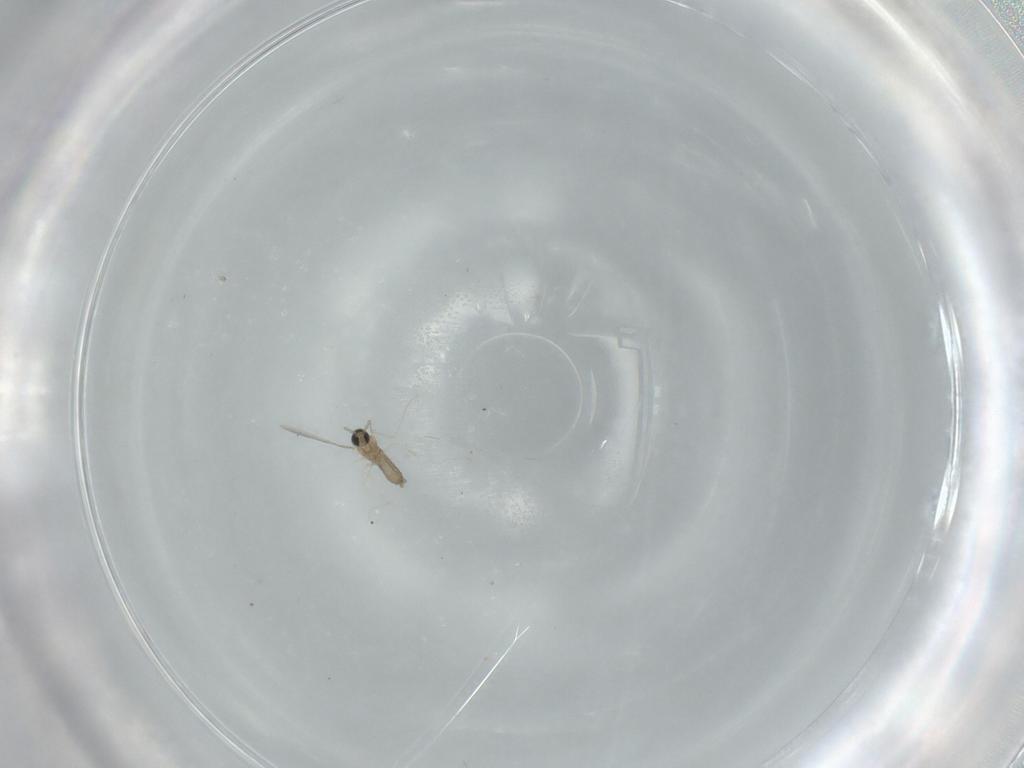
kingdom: Animalia
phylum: Arthropoda
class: Insecta
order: Diptera
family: Cecidomyiidae
